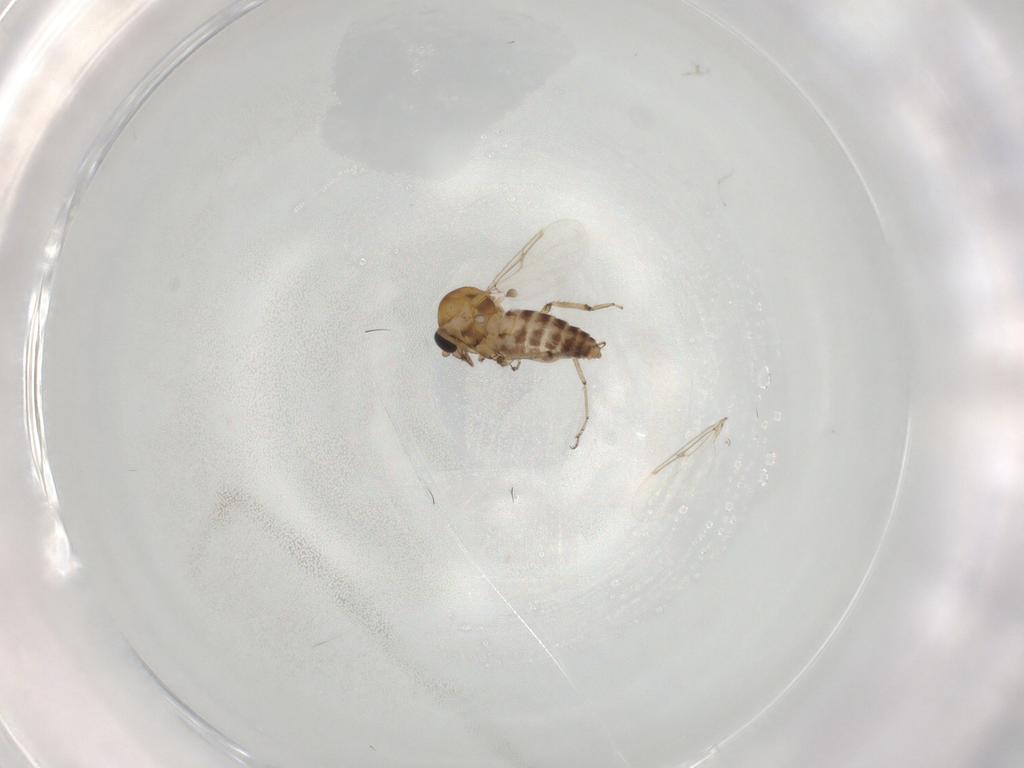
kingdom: Animalia
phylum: Arthropoda
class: Insecta
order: Diptera
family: Ceratopogonidae
